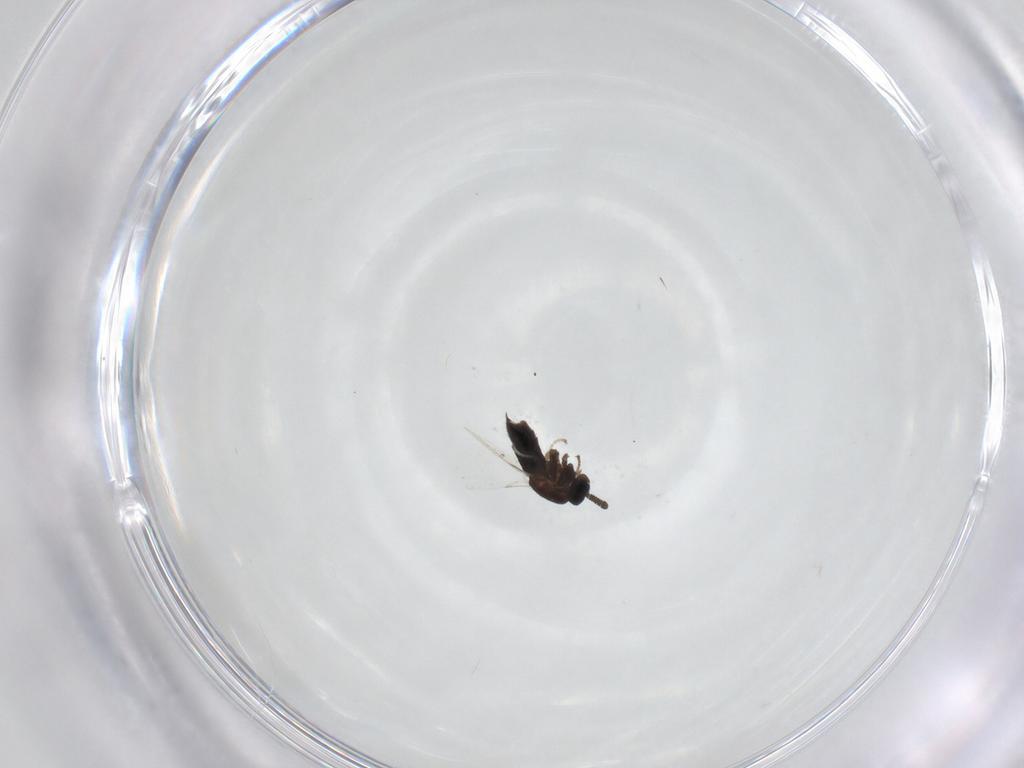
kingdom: Animalia
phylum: Arthropoda
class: Insecta
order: Diptera
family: Scatopsidae
